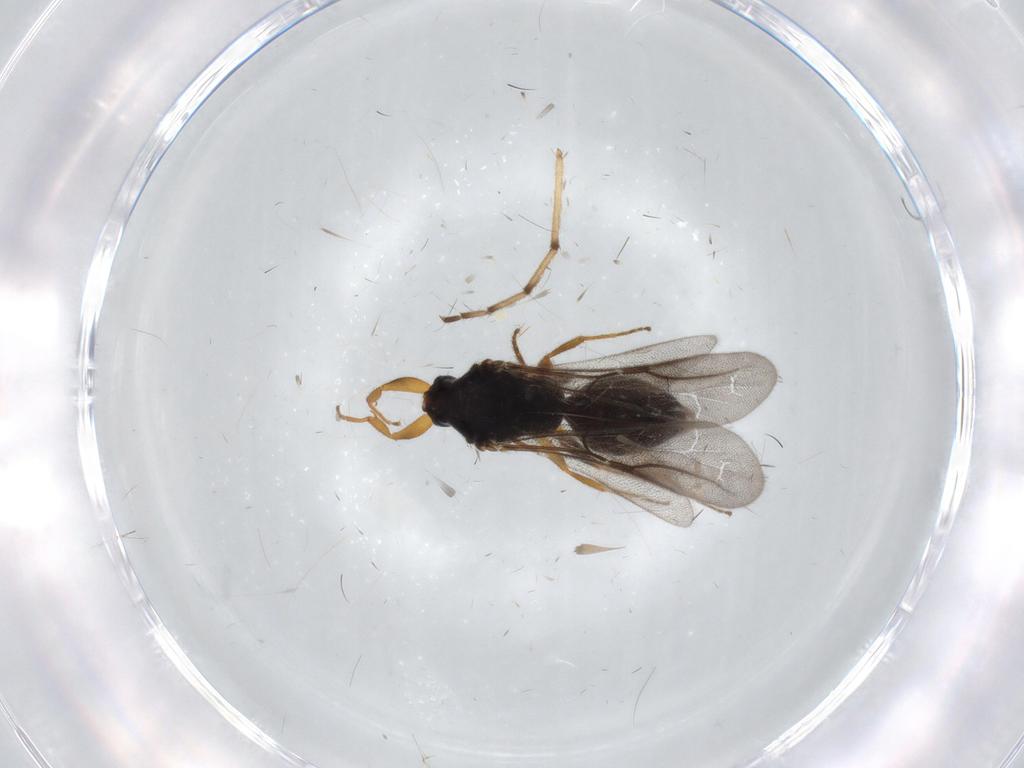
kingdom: Animalia
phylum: Arthropoda
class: Insecta
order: Hymenoptera
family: Bethylidae
